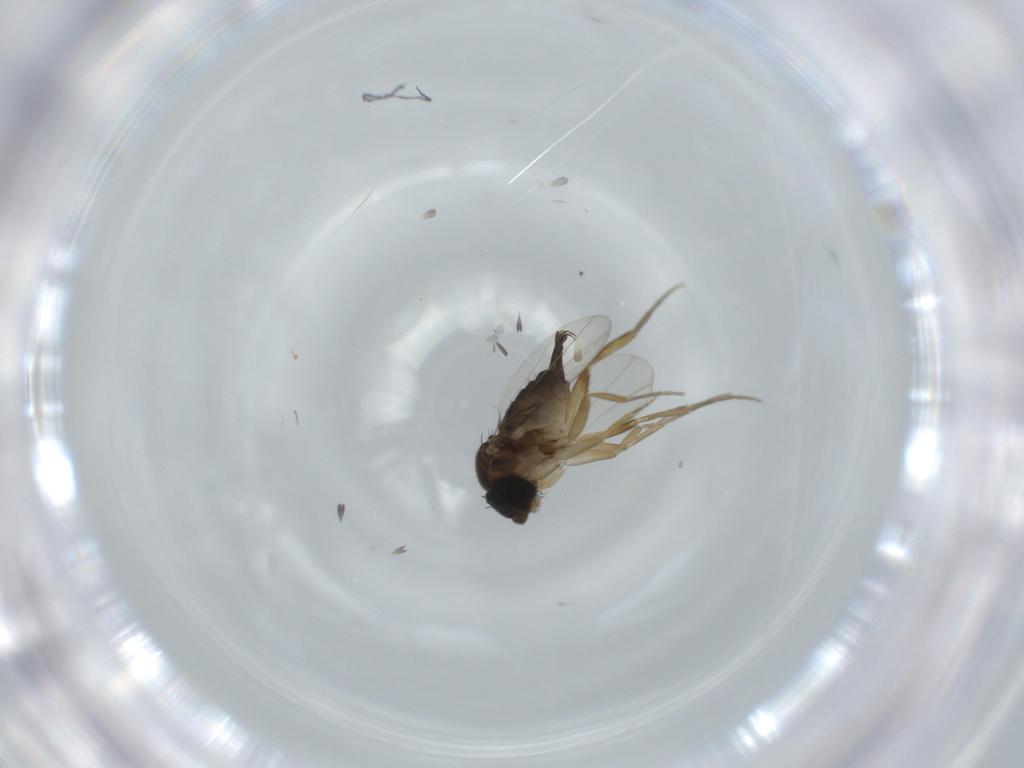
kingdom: Animalia
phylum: Arthropoda
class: Insecta
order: Diptera
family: Phoridae
